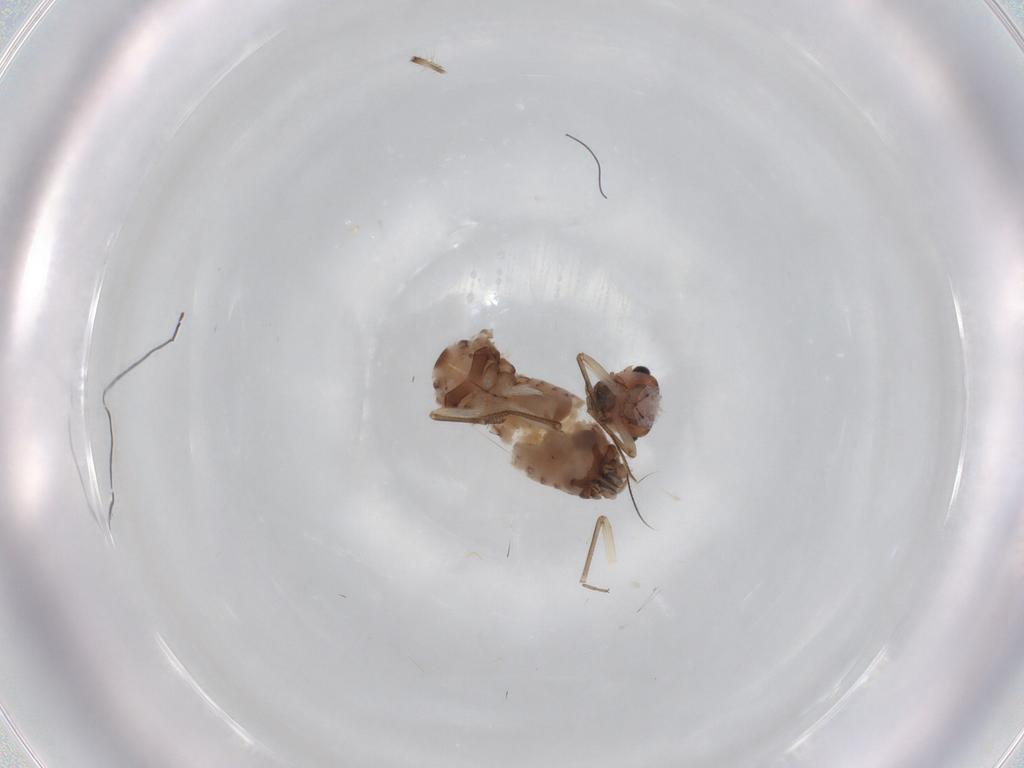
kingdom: Animalia
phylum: Arthropoda
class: Insecta
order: Psocodea
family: Peripsocidae
